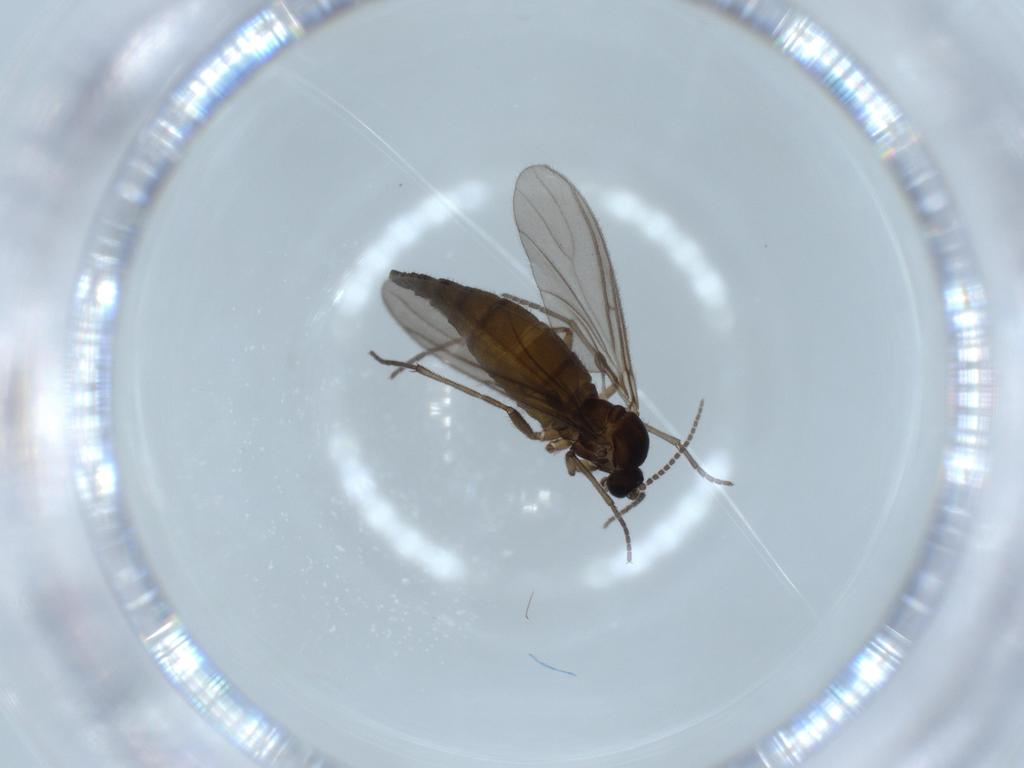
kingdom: Animalia
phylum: Arthropoda
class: Insecta
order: Diptera
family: Sciaridae
